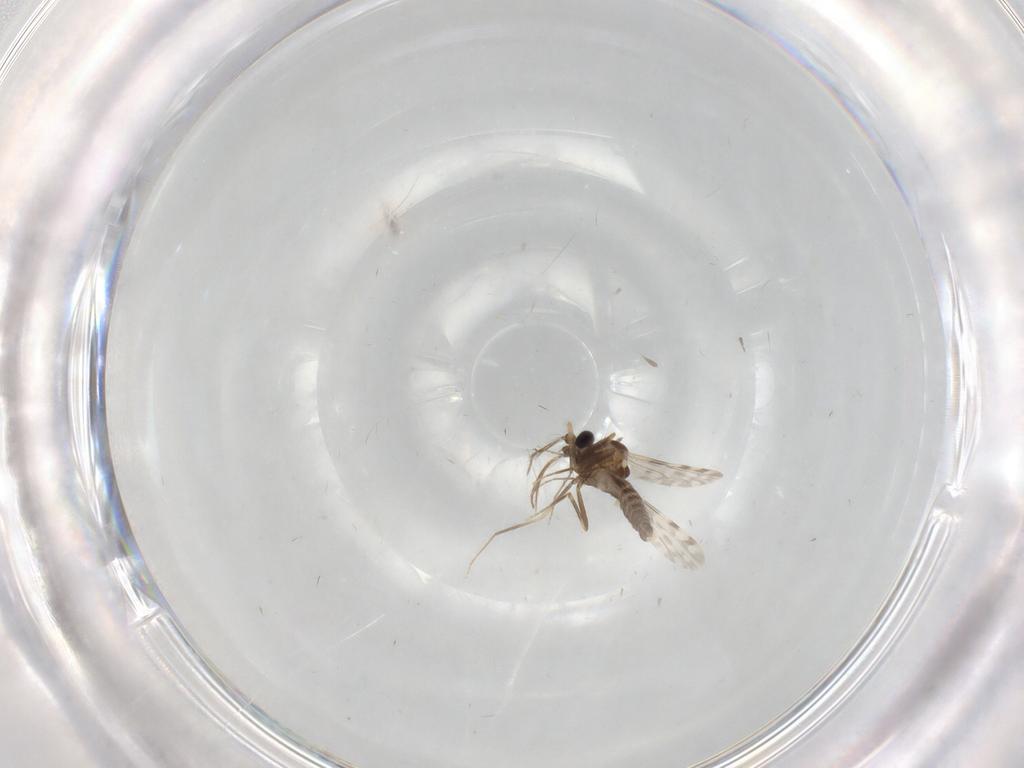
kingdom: Animalia
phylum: Arthropoda
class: Insecta
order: Diptera
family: Ceratopogonidae
